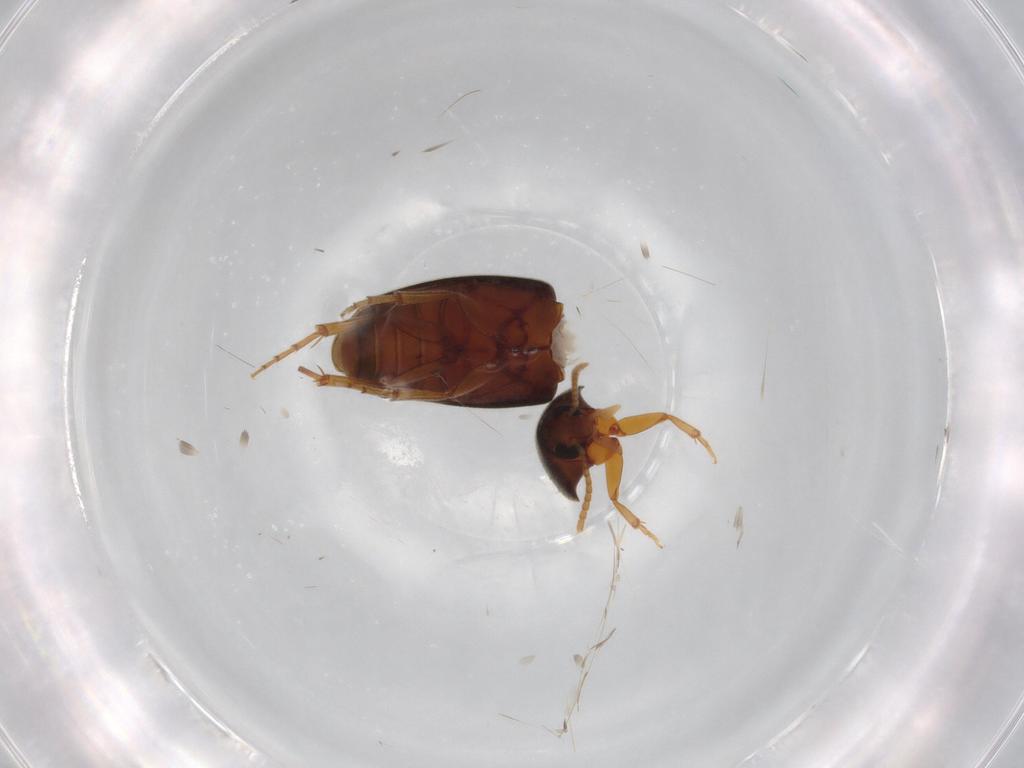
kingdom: Animalia
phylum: Arthropoda
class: Insecta
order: Coleoptera
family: Scraptiidae
